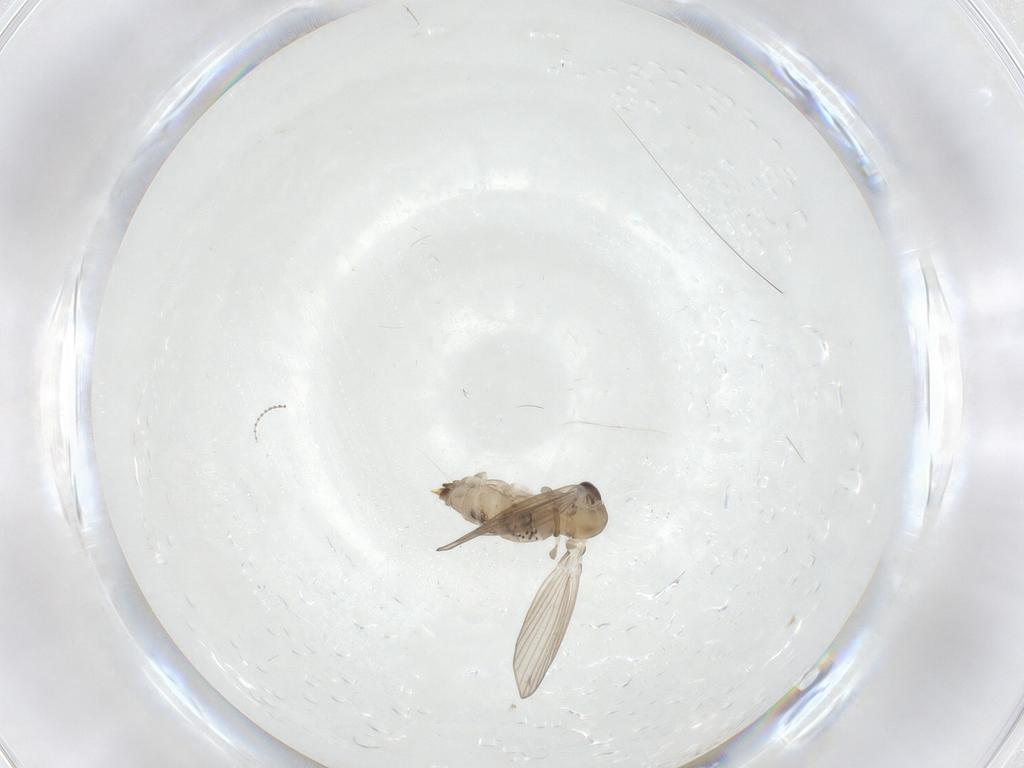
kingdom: Animalia
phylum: Arthropoda
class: Insecta
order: Diptera
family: Psychodidae
